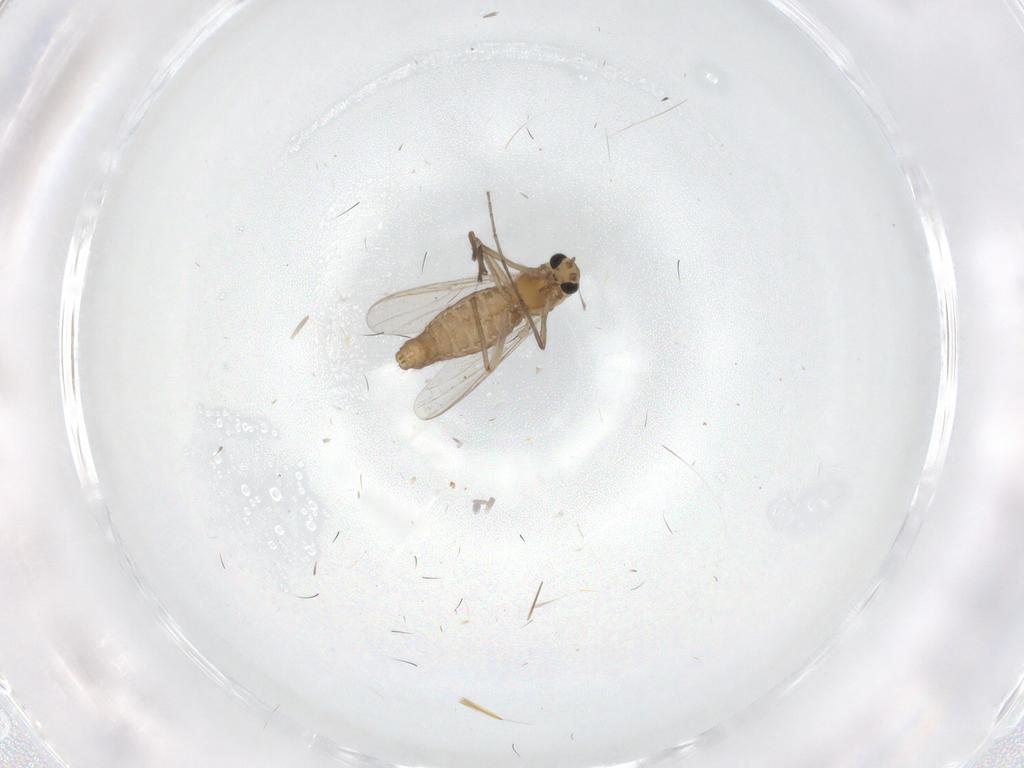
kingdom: Animalia
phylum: Arthropoda
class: Insecta
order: Diptera
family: Chironomidae
